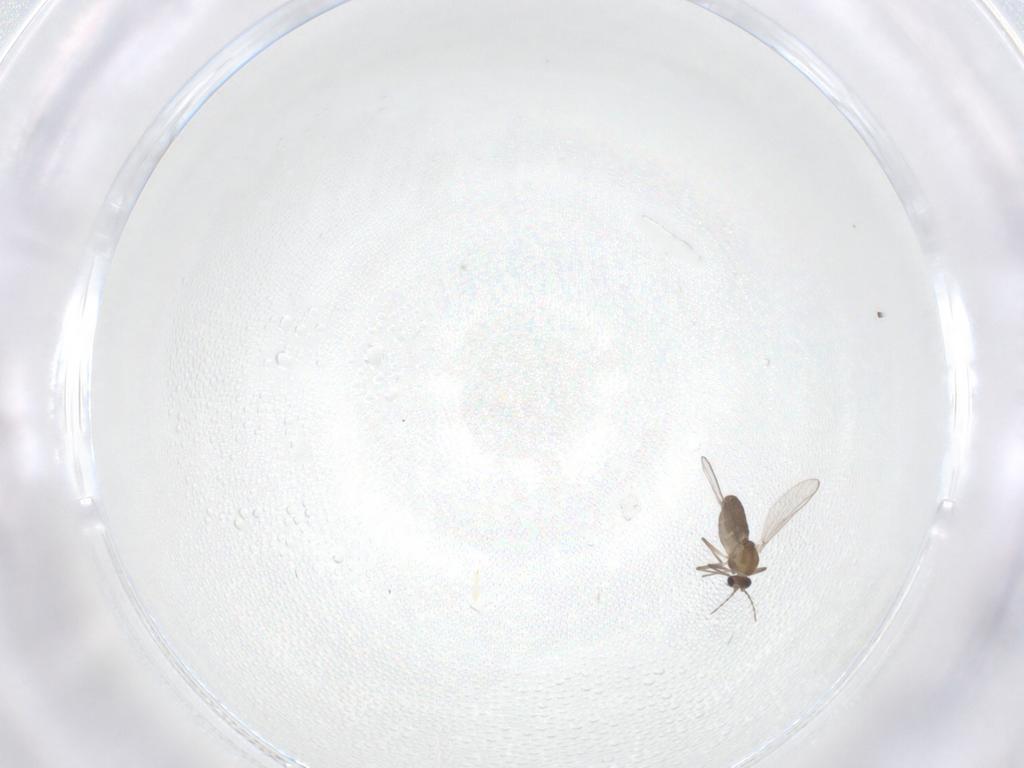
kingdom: Animalia
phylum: Arthropoda
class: Insecta
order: Diptera
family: Chironomidae
